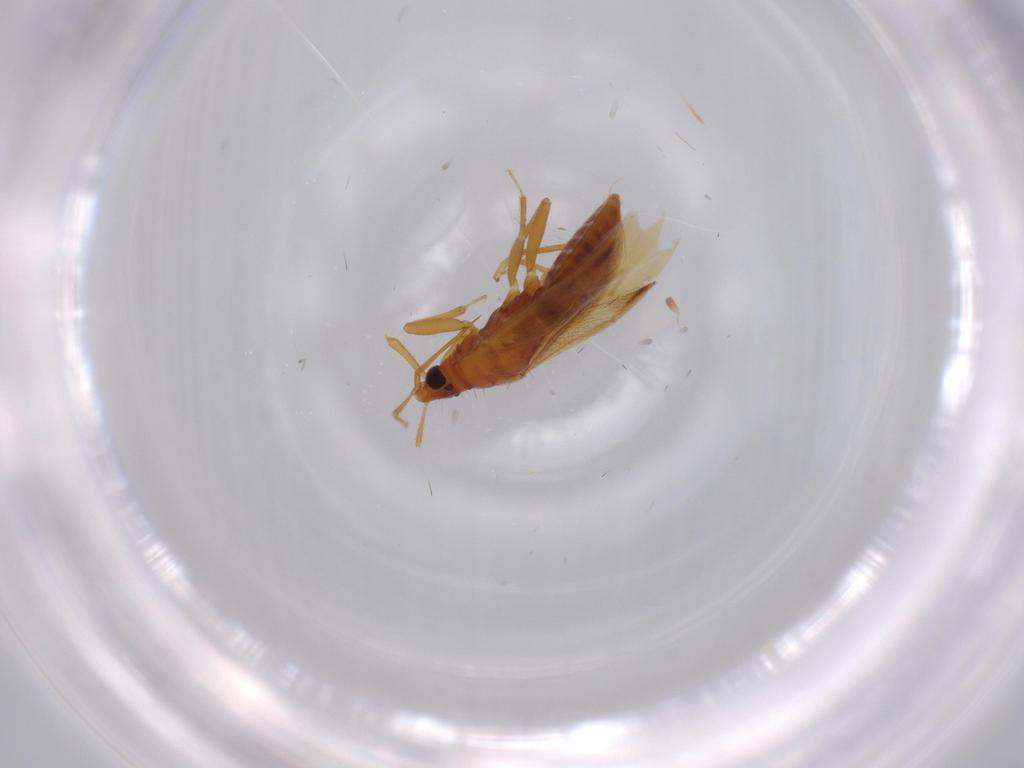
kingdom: Animalia
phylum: Arthropoda
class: Insecta
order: Hemiptera
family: Anthocoridae
